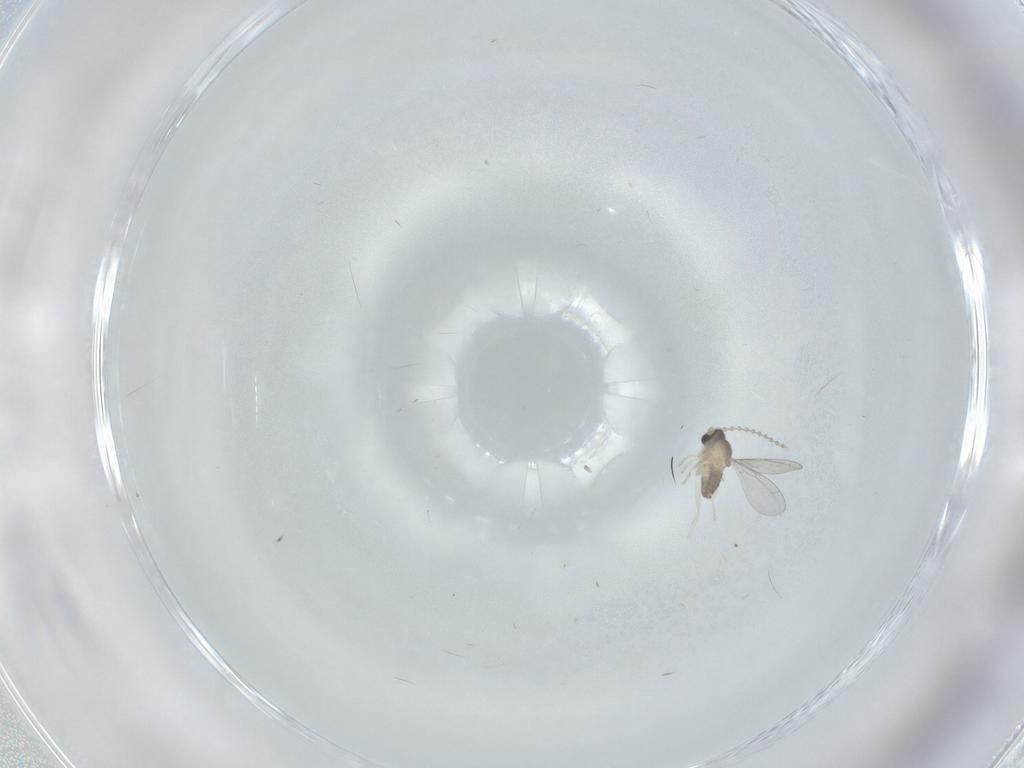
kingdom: Animalia
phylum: Arthropoda
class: Insecta
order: Diptera
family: Cecidomyiidae
